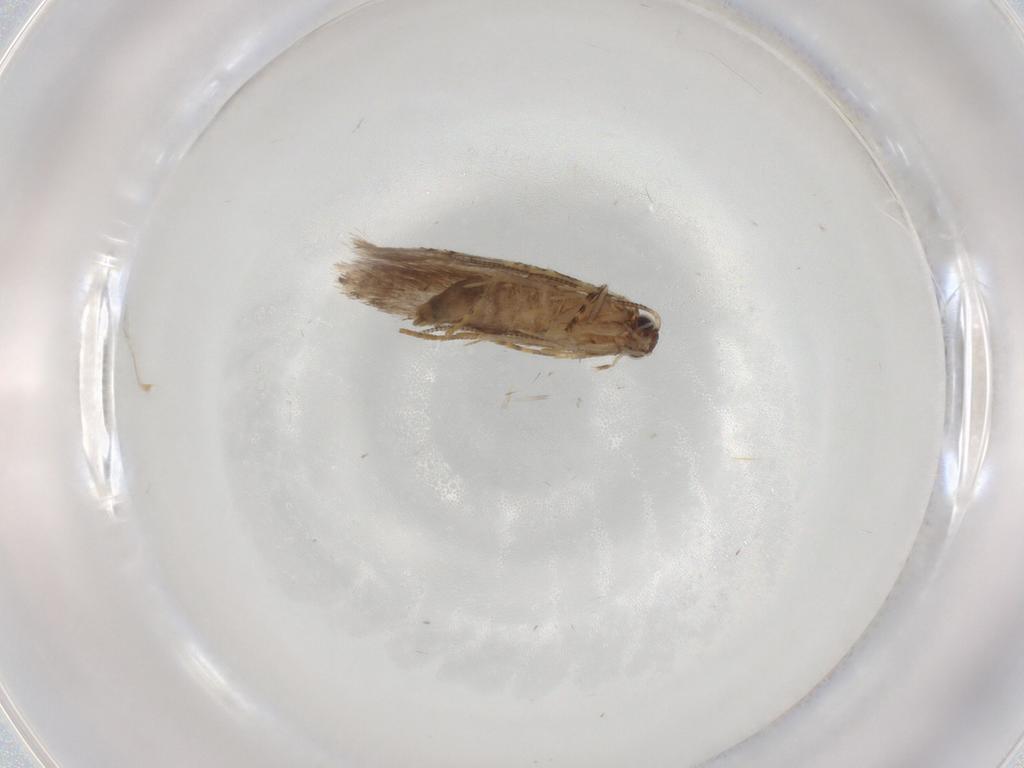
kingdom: Animalia
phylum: Arthropoda
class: Insecta
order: Lepidoptera
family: Tineidae
